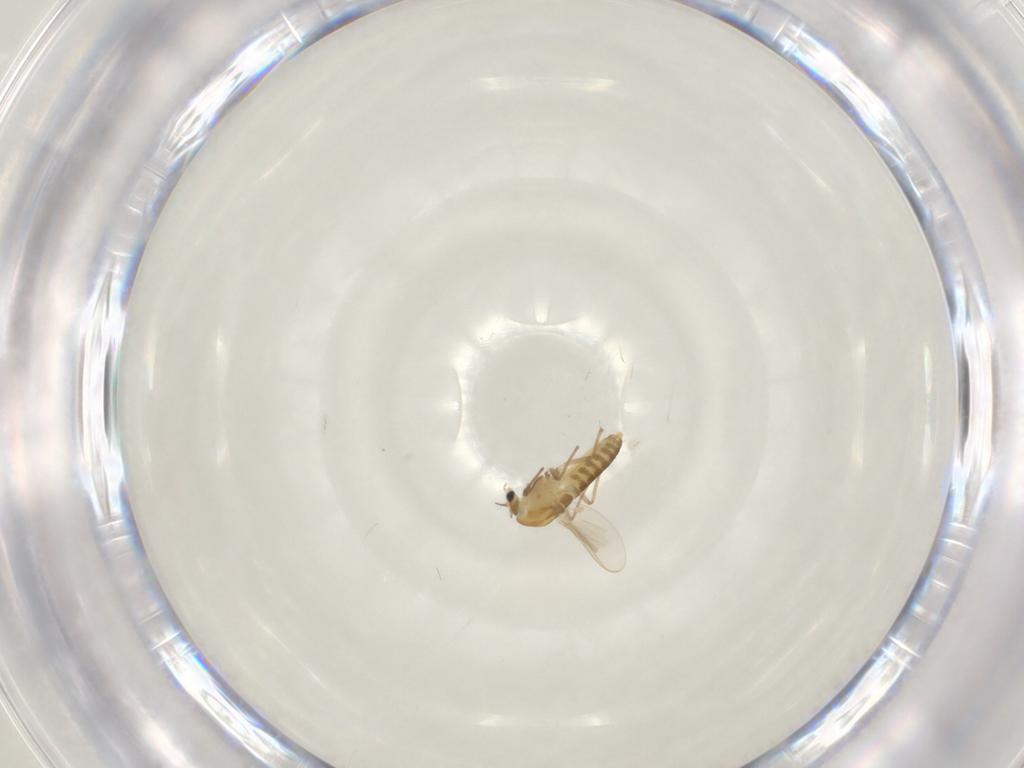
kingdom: Animalia
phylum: Arthropoda
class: Insecta
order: Diptera
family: Chironomidae
